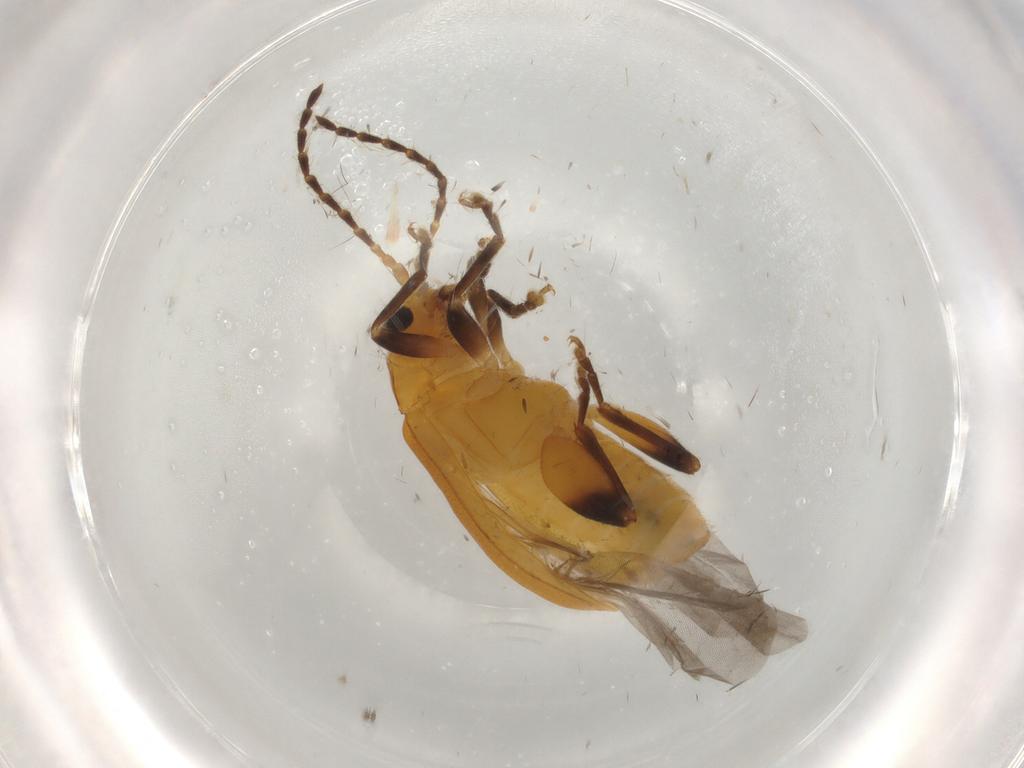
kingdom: Animalia
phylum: Arthropoda
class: Insecta
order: Coleoptera
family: Chrysomelidae
